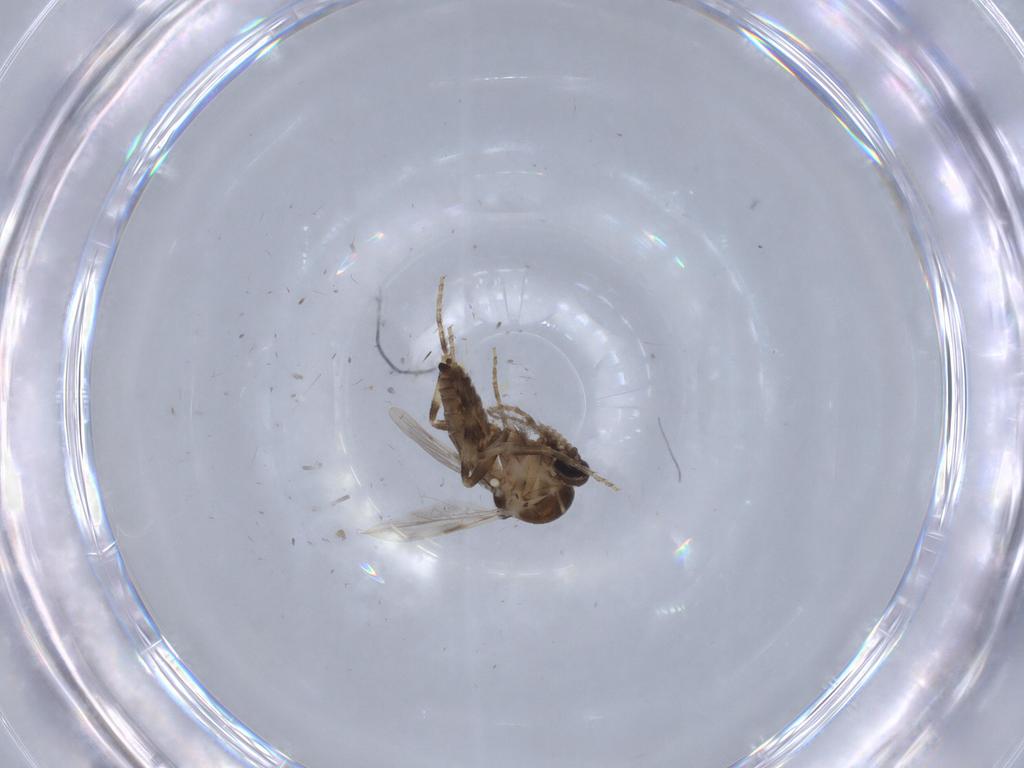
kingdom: Animalia
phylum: Arthropoda
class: Insecta
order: Diptera
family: Ceratopogonidae
